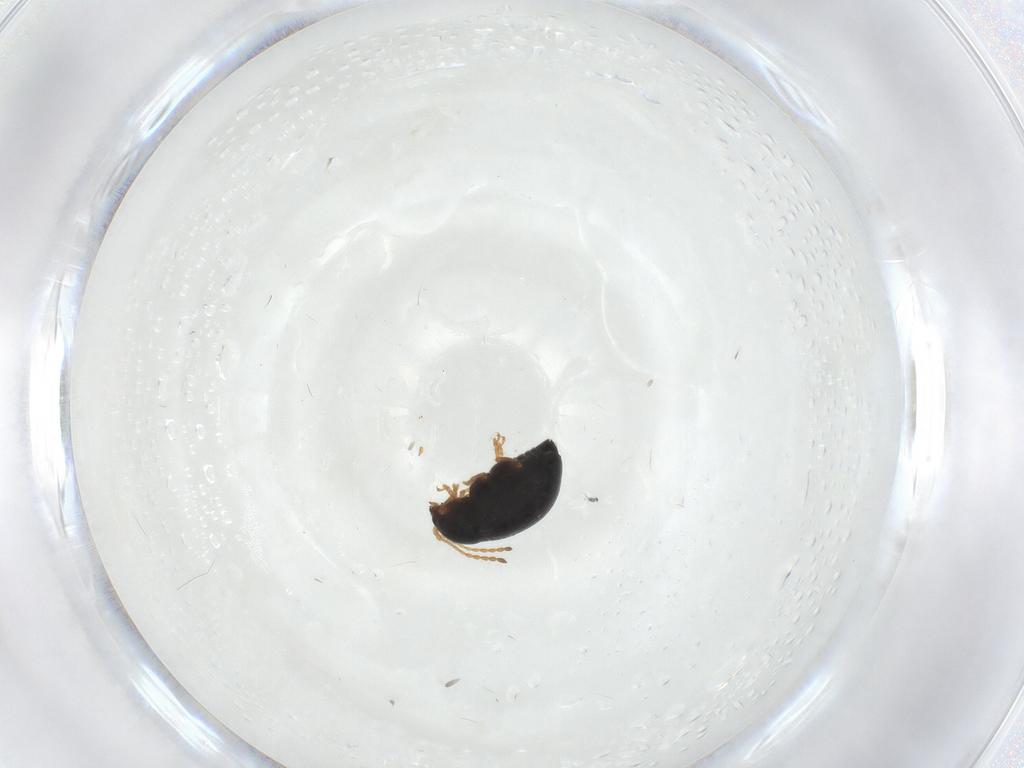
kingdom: Animalia
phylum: Arthropoda
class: Insecta
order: Coleoptera
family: Chrysomelidae
